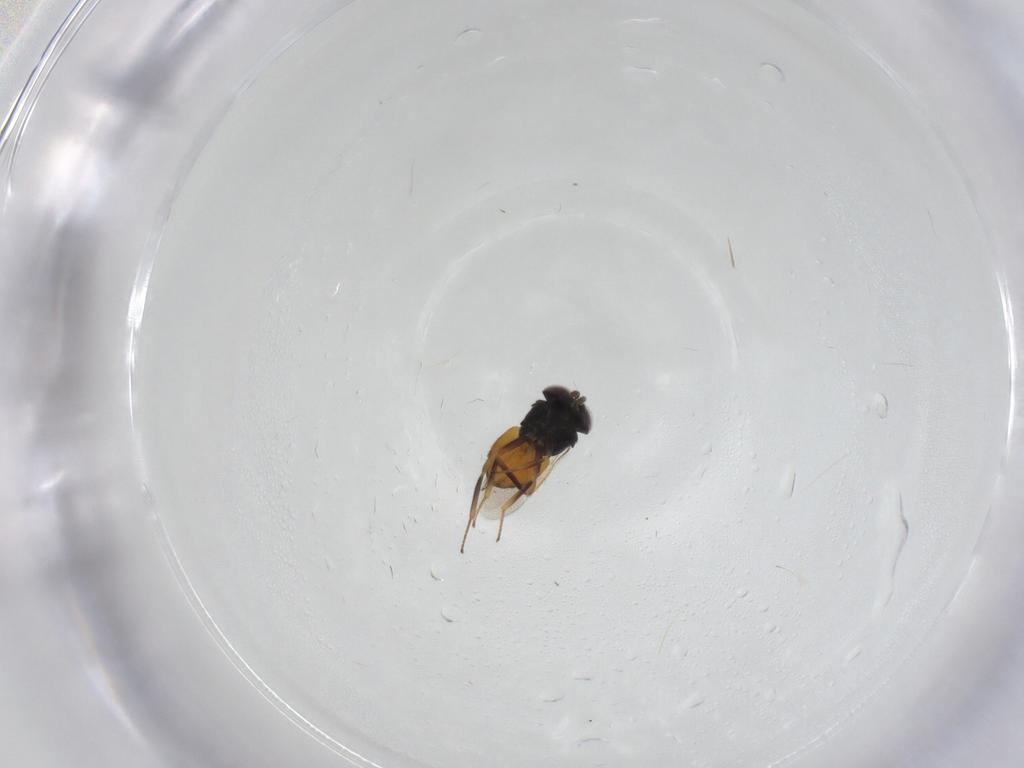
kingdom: Animalia
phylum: Arthropoda
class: Insecta
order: Hymenoptera
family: Aphelinidae
